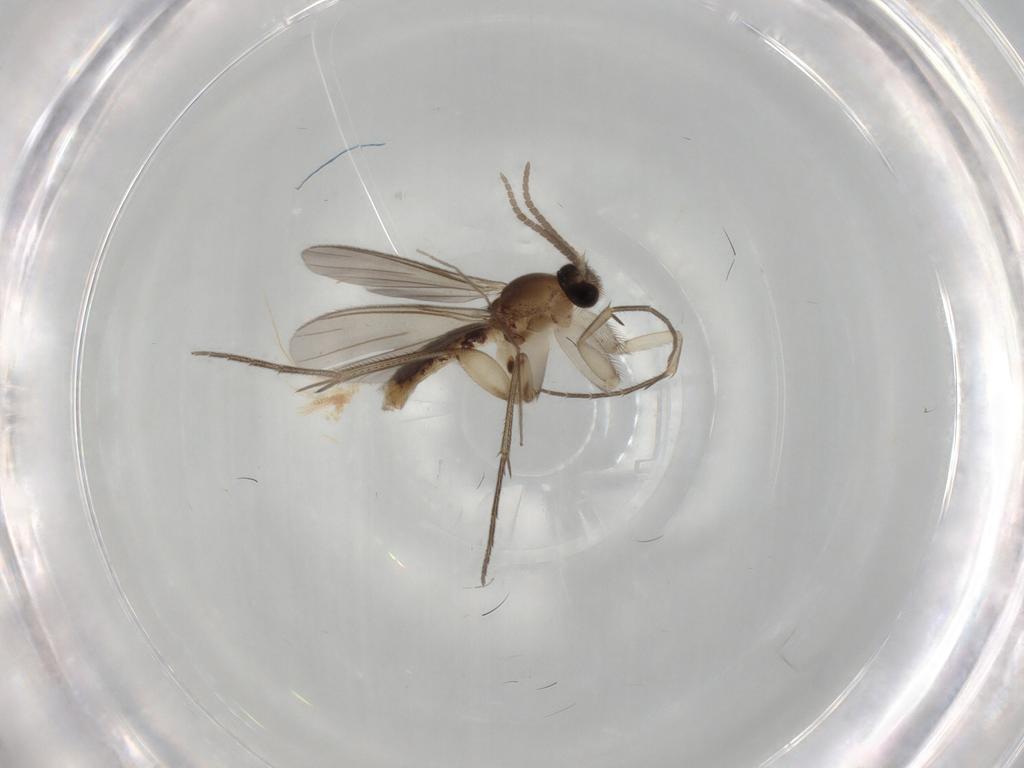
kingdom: Animalia
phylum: Arthropoda
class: Insecta
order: Diptera
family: Mycetophilidae
